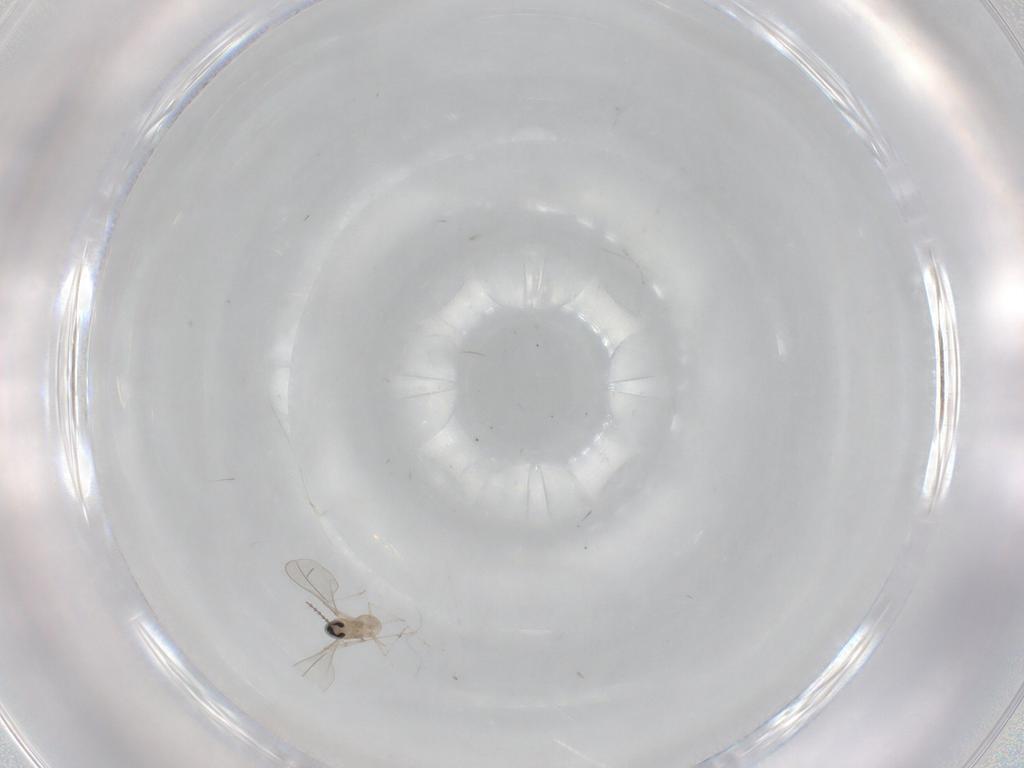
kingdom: Animalia
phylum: Arthropoda
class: Insecta
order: Diptera
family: Cecidomyiidae
